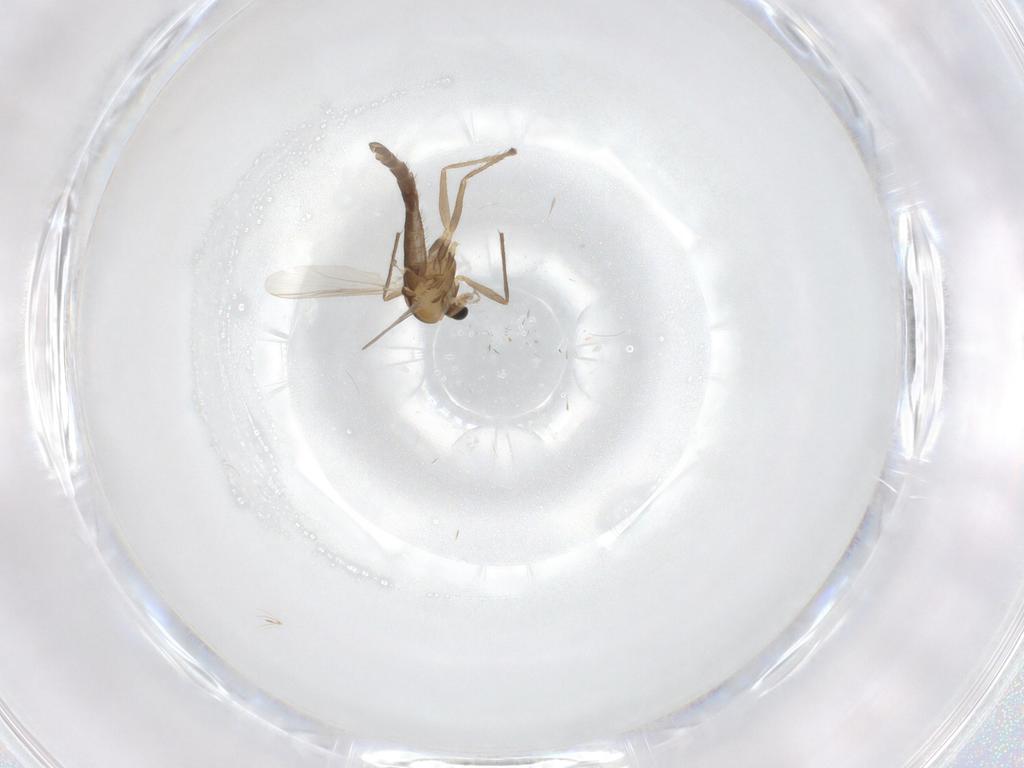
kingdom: Animalia
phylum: Arthropoda
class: Insecta
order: Diptera
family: Chironomidae
